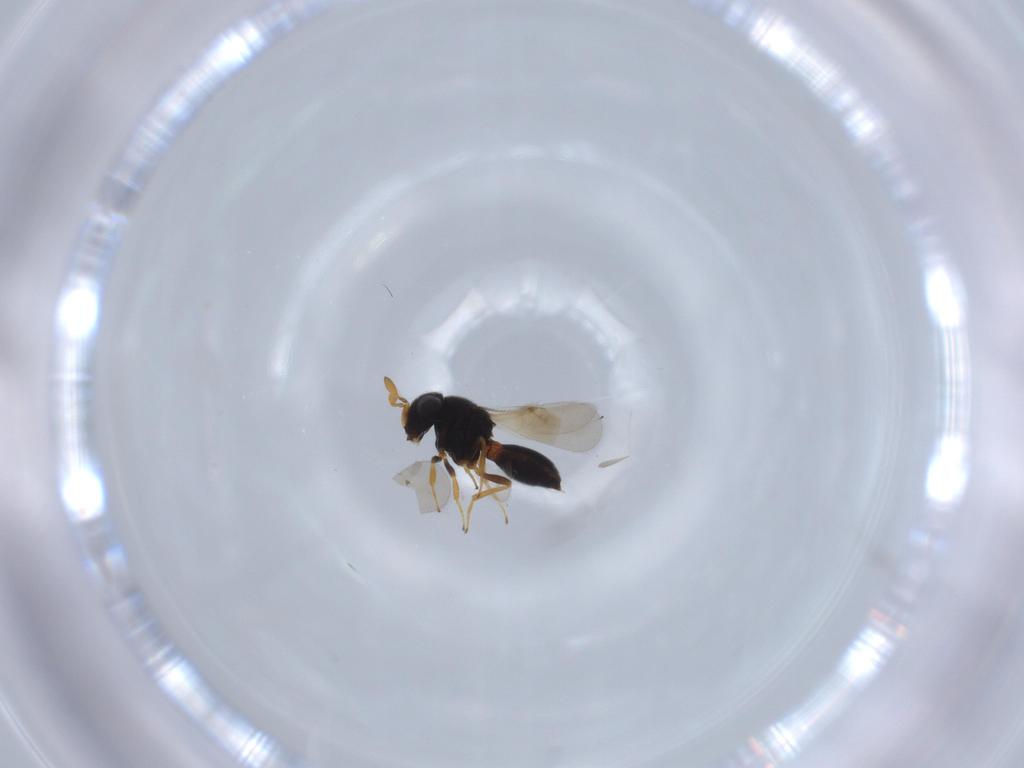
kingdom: Animalia
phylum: Arthropoda
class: Insecta
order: Hymenoptera
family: Scelionidae
